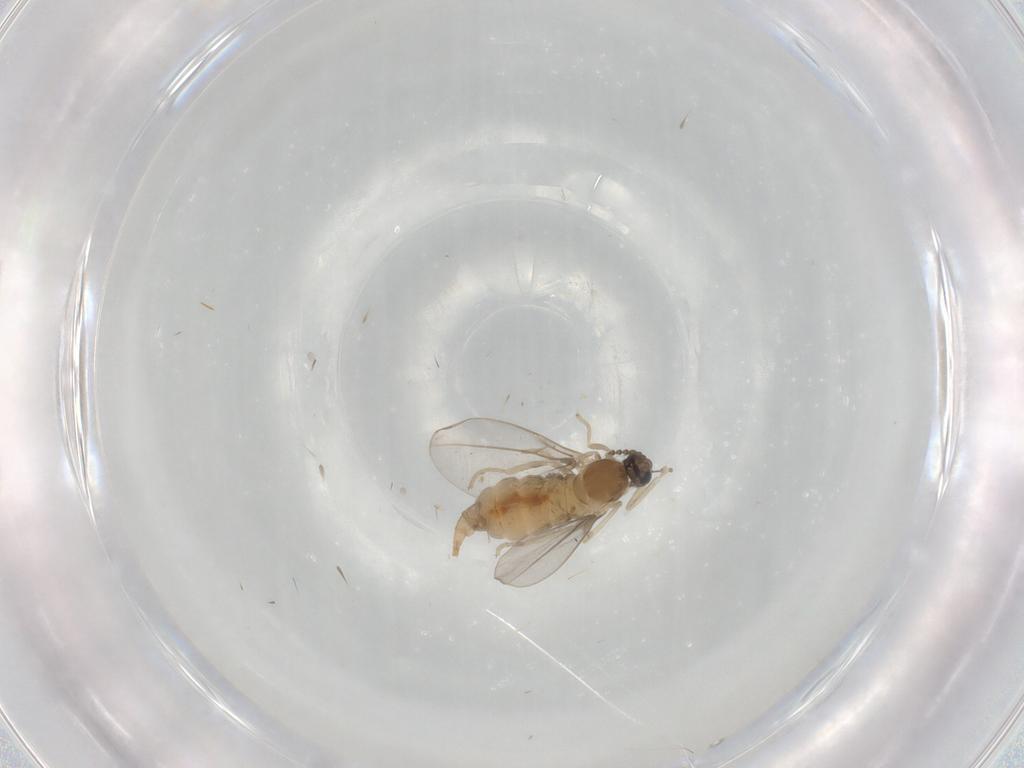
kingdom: Animalia
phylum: Arthropoda
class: Insecta
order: Diptera
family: Cecidomyiidae
